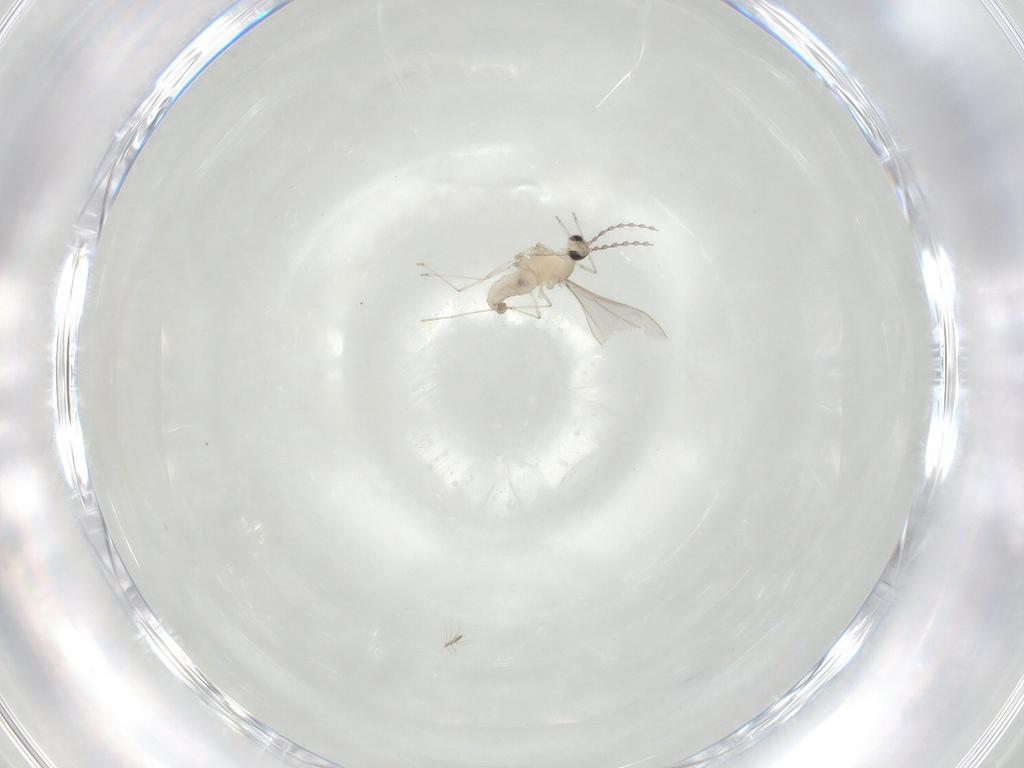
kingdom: Animalia
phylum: Arthropoda
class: Insecta
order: Diptera
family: Cecidomyiidae
